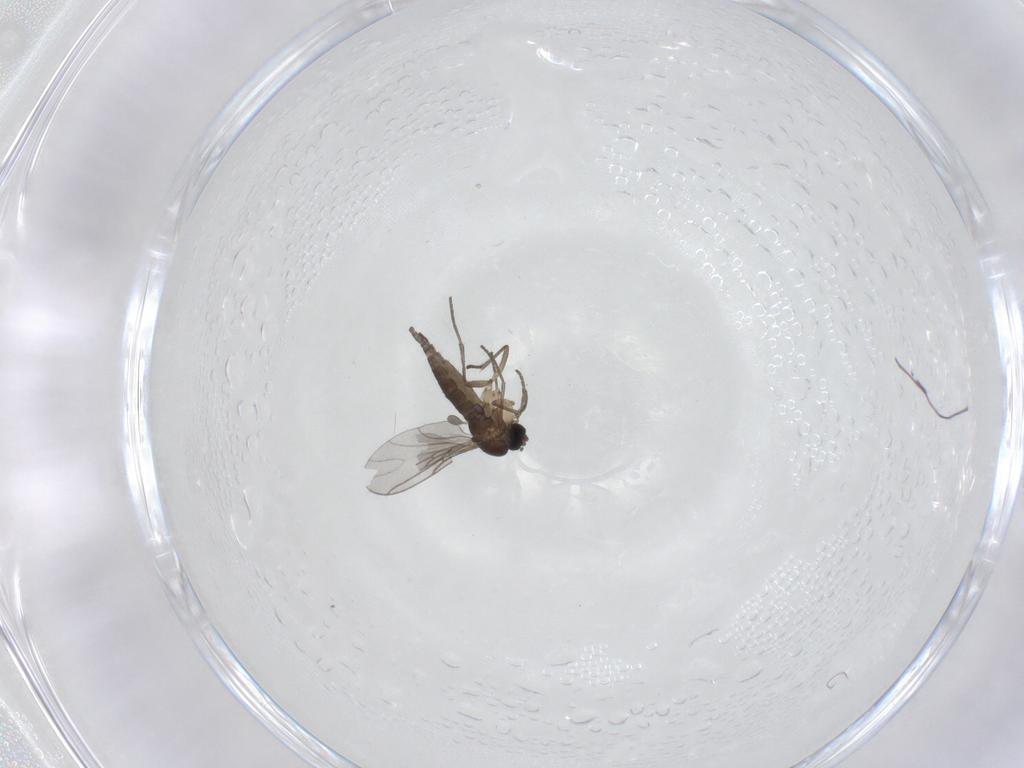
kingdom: Animalia
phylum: Arthropoda
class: Insecta
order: Diptera
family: Sciaridae
